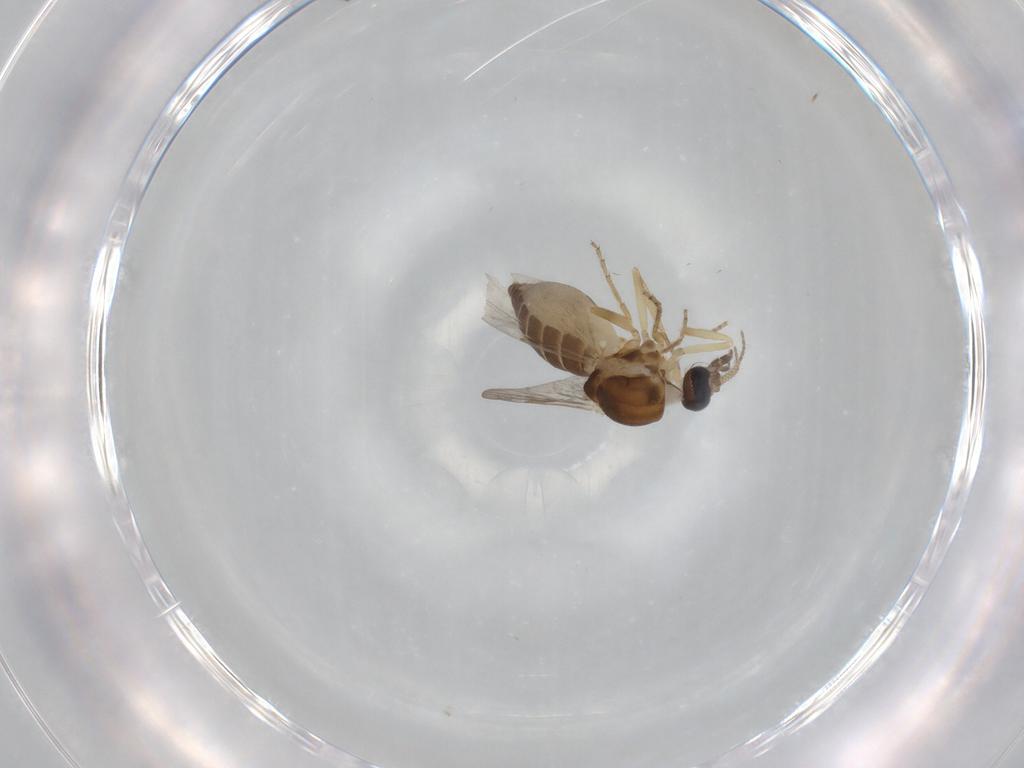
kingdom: Animalia
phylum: Arthropoda
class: Insecta
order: Diptera
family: Ceratopogonidae
